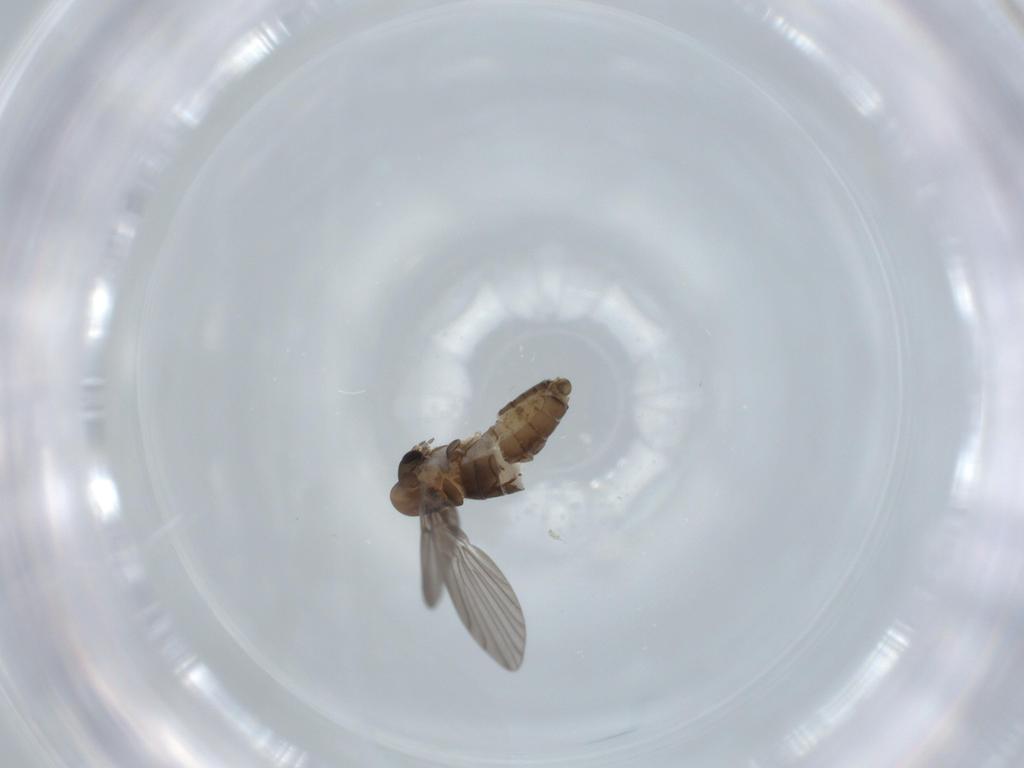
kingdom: Animalia
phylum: Arthropoda
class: Insecta
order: Diptera
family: Psychodidae
